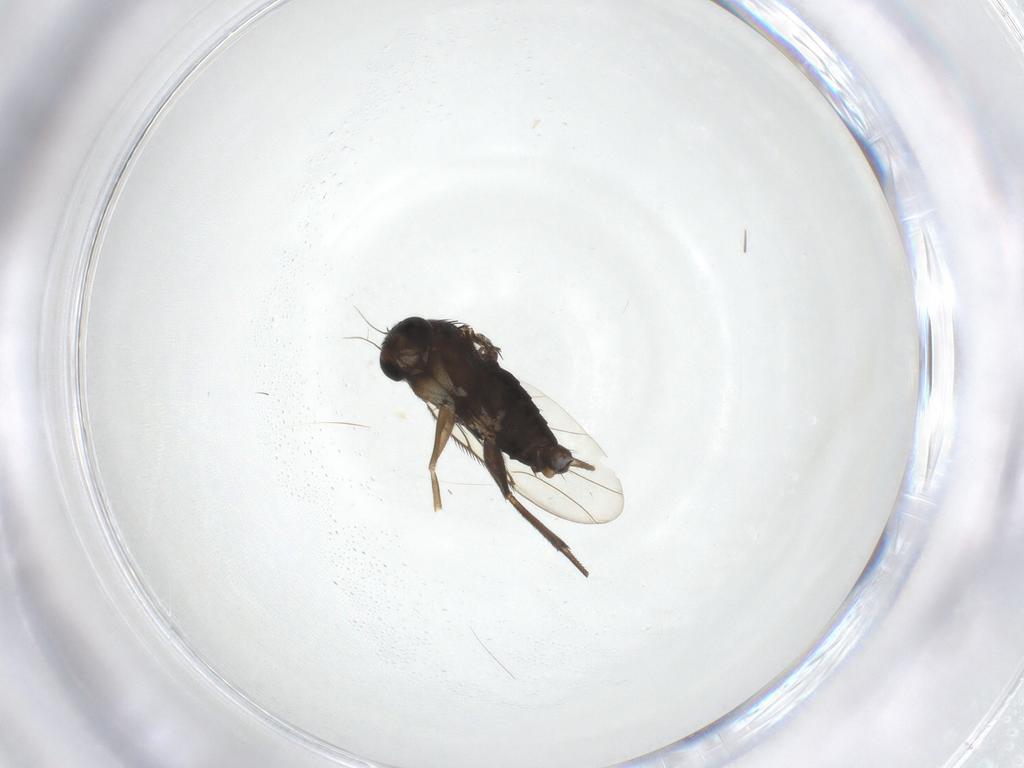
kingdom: Animalia
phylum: Arthropoda
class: Insecta
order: Diptera
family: Phoridae
